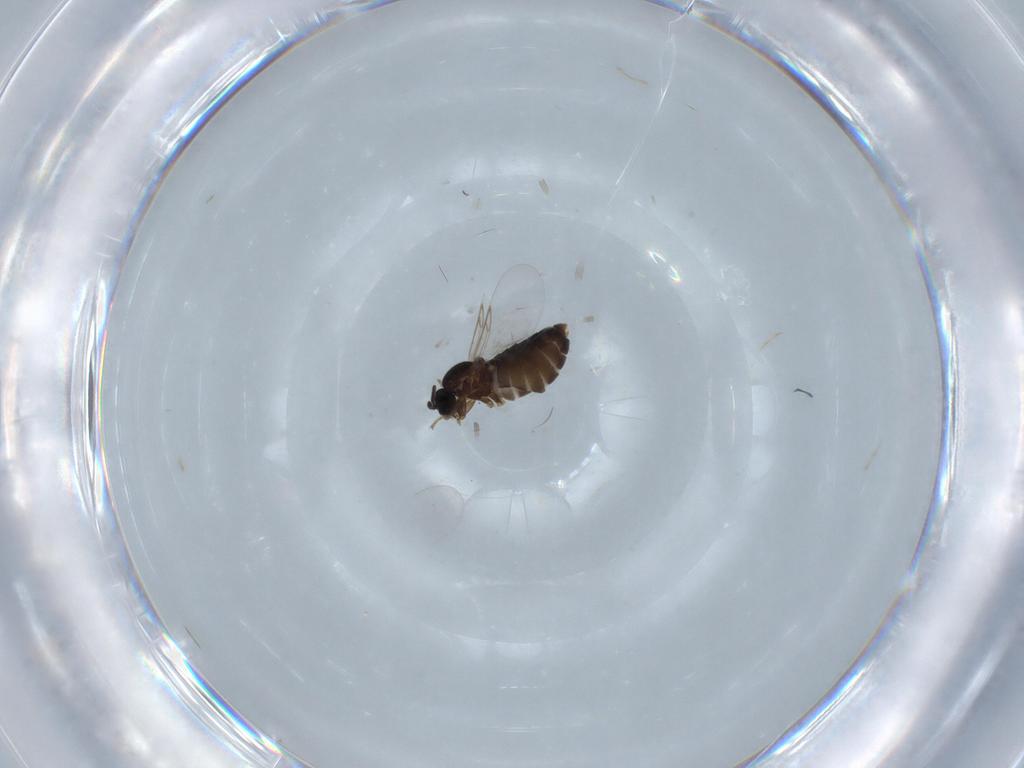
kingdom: Animalia
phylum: Arthropoda
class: Insecta
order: Diptera
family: Scatopsidae
